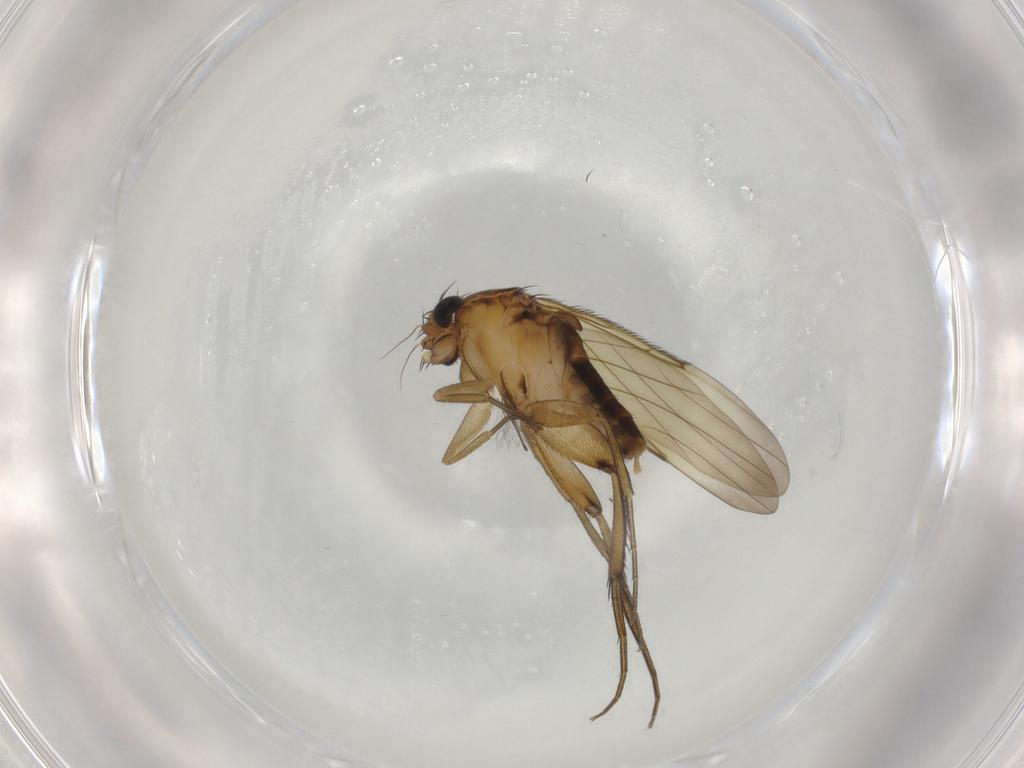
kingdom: Animalia
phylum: Arthropoda
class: Insecta
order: Diptera
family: Phoridae
